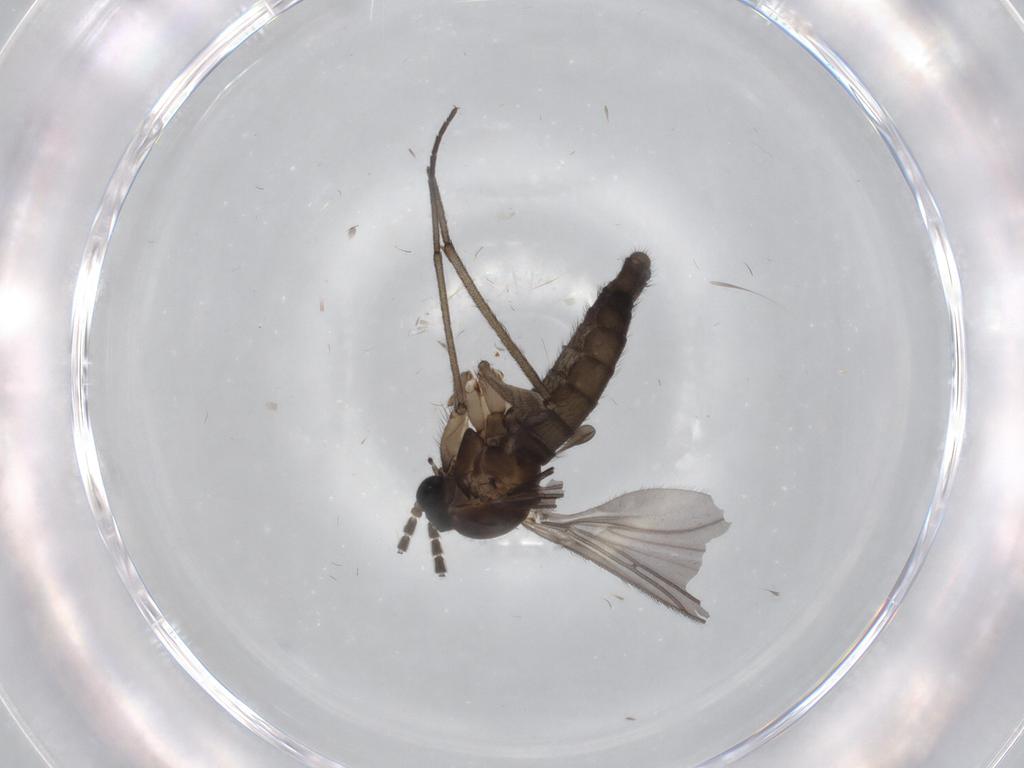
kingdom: Animalia
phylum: Arthropoda
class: Insecta
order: Diptera
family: Sciaridae
